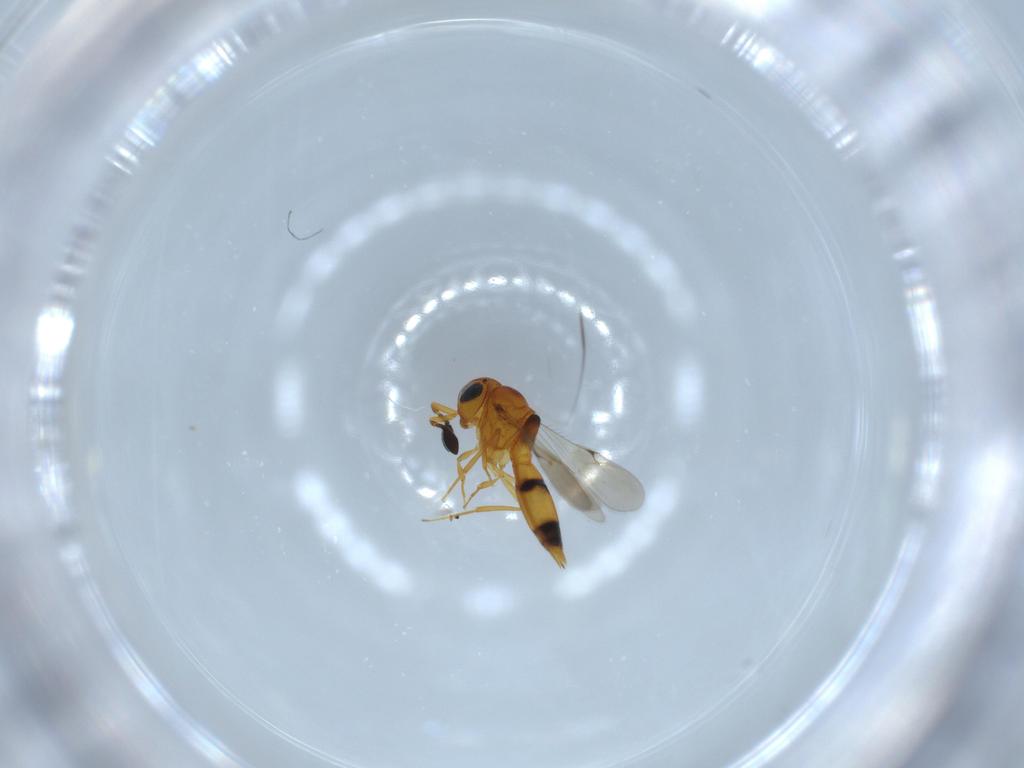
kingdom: Animalia
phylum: Arthropoda
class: Insecta
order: Hymenoptera
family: Scelionidae
